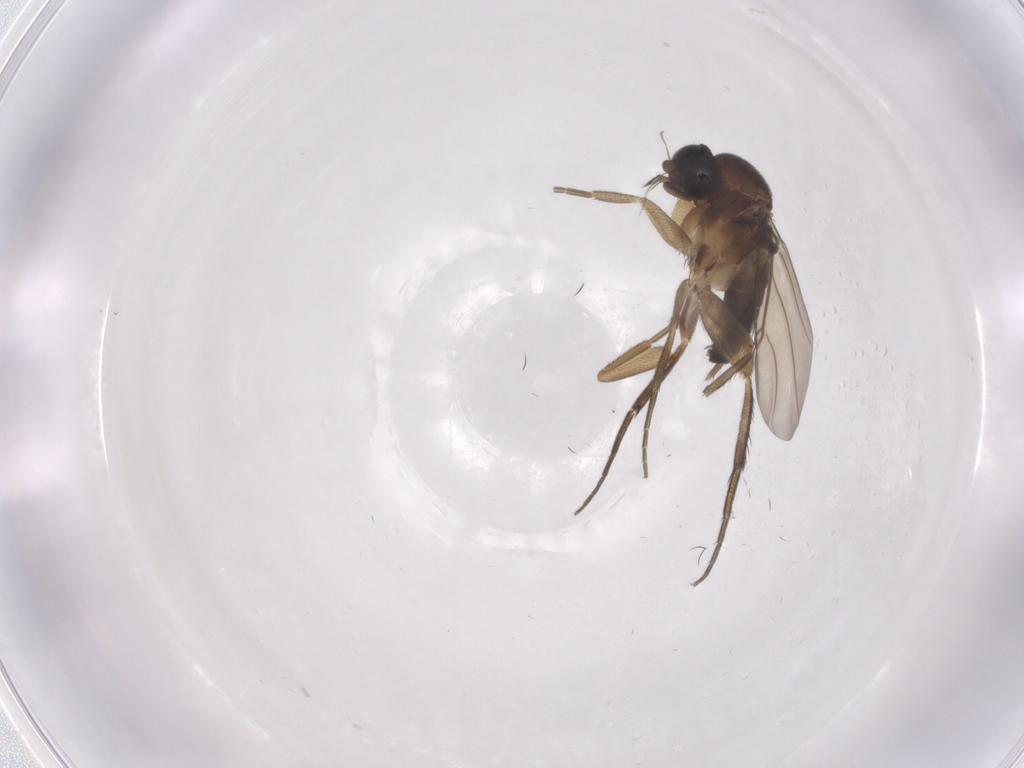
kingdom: Animalia
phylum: Arthropoda
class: Insecta
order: Diptera
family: Phoridae
